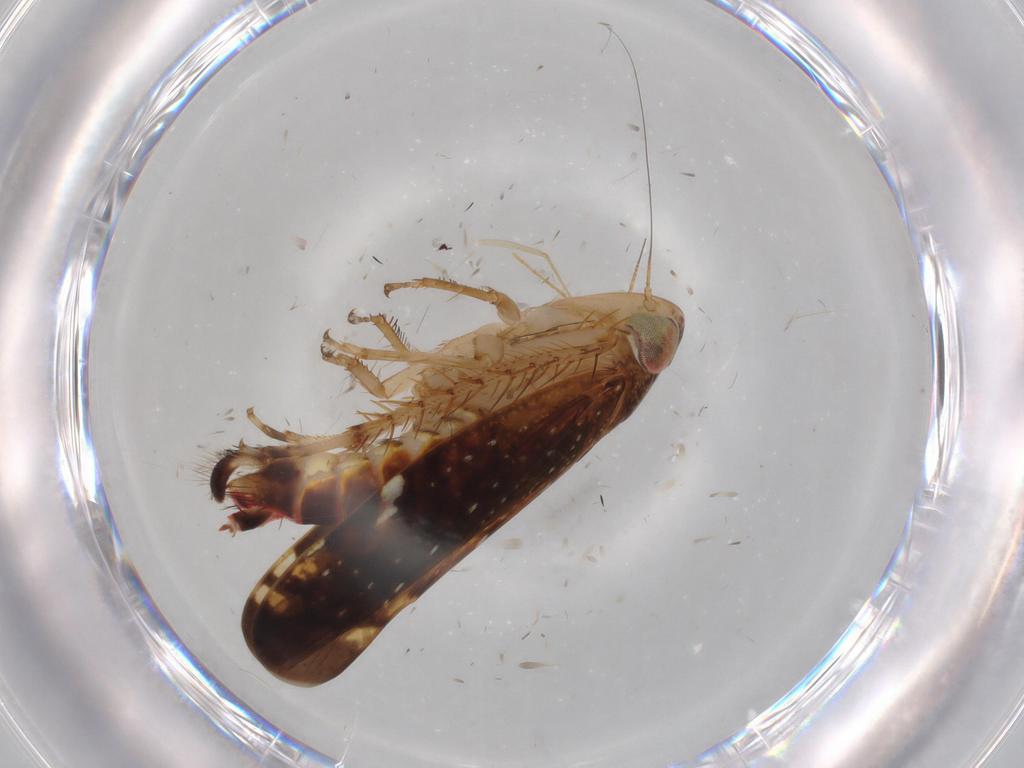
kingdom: Animalia
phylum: Arthropoda
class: Insecta
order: Hemiptera
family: Cicadellidae
